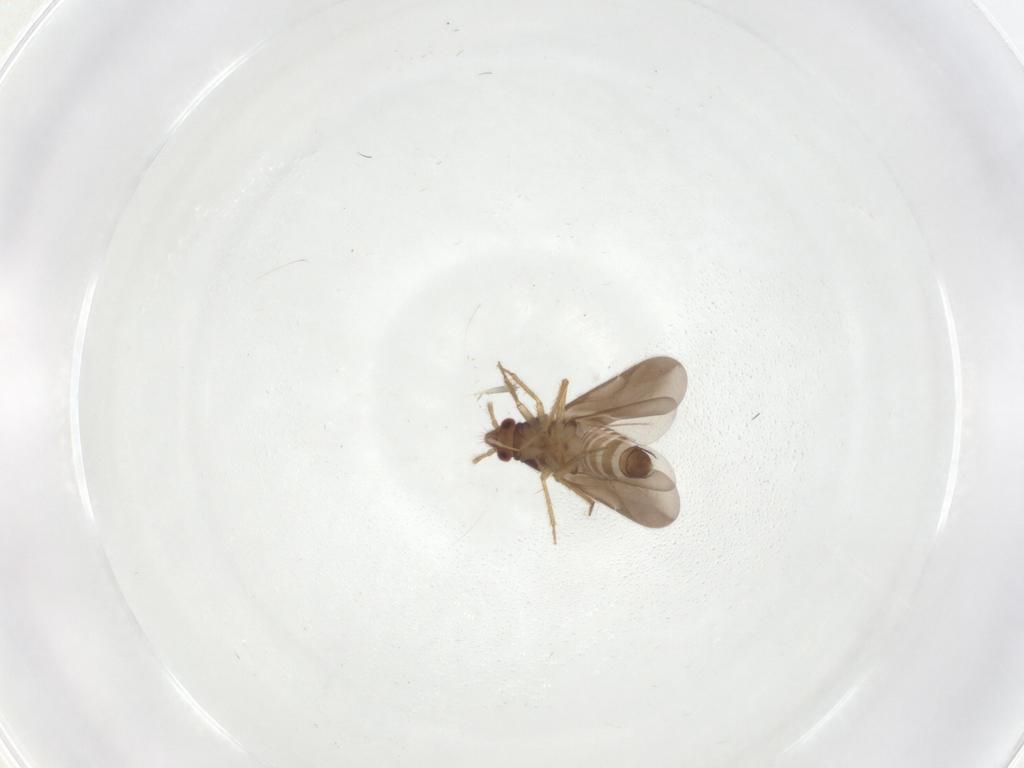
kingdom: Animalia
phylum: Arthropoda
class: Insecta
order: Hemiptera
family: Ceratocombidae
